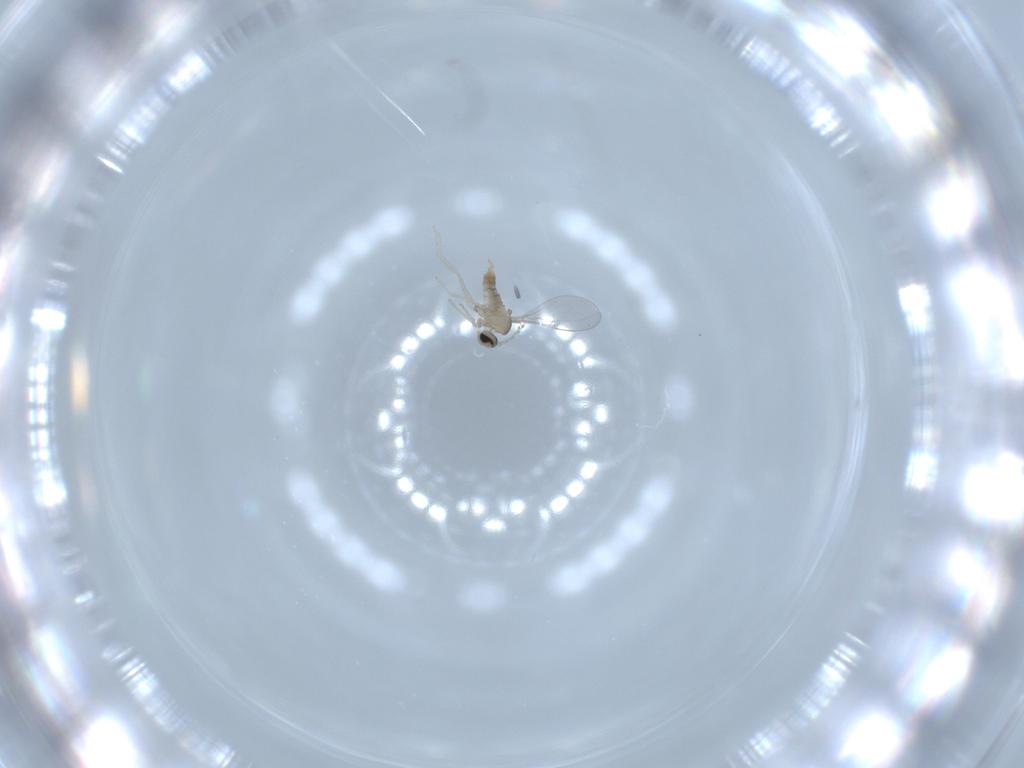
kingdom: Animalia
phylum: Arthropoda
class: Insecta
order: Diptera
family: Cecidomyiidae
